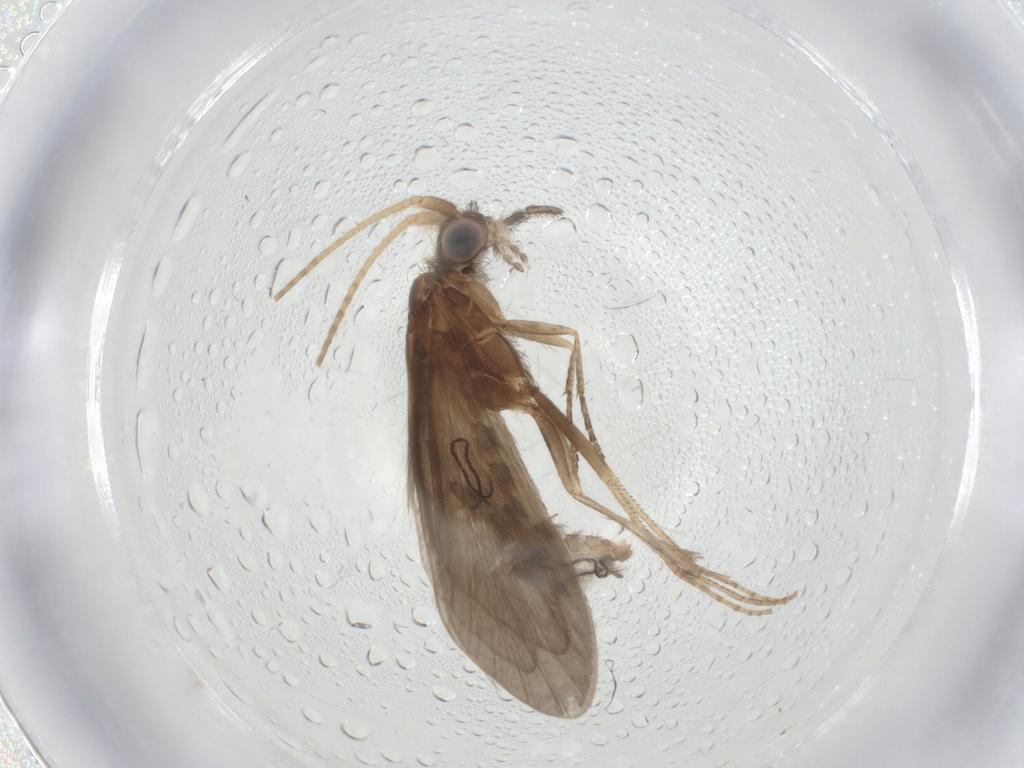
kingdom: Animalia
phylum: Arthropoda
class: Insecta
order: Trichoptera
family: Helicopsychidae
